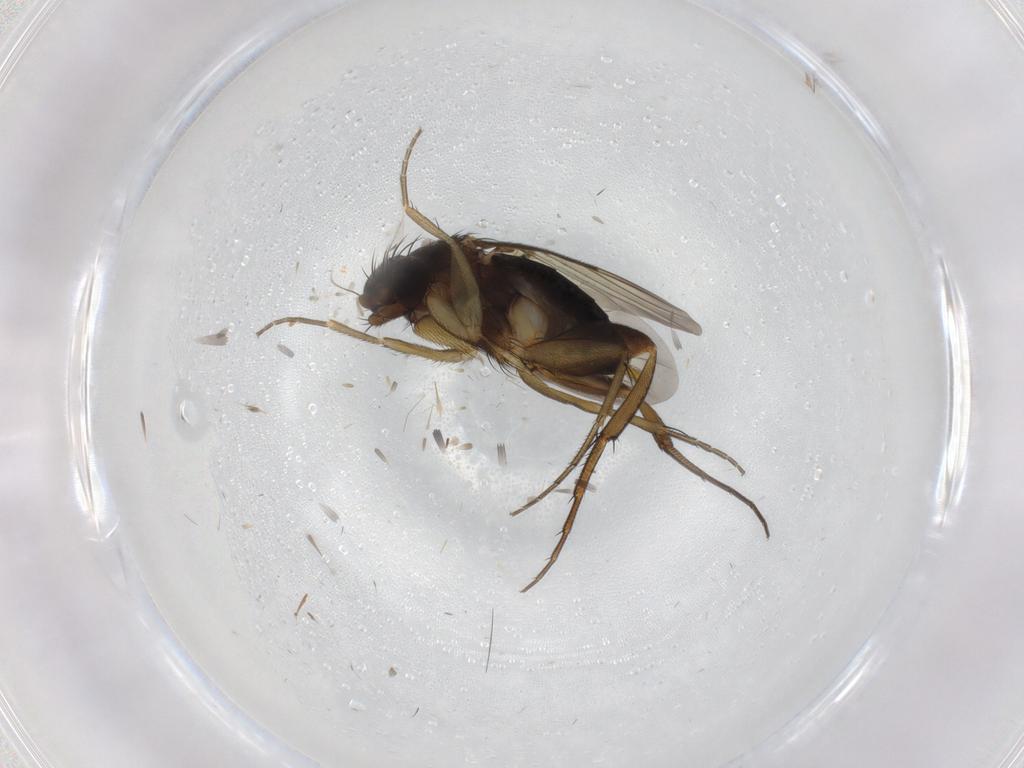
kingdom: Animalia
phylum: Arthropoda
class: Insecta
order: Diptera
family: Phoridae
